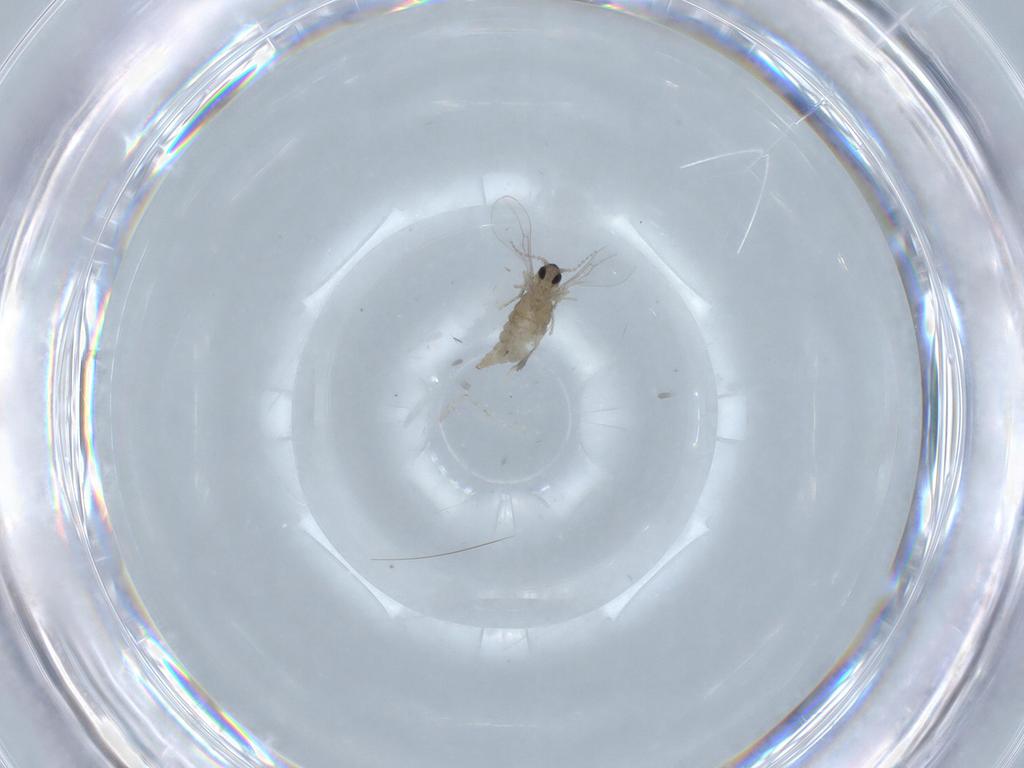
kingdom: Animalia
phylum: Arthropoda
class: Insecta
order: Diptera
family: Cecidomyiidae
